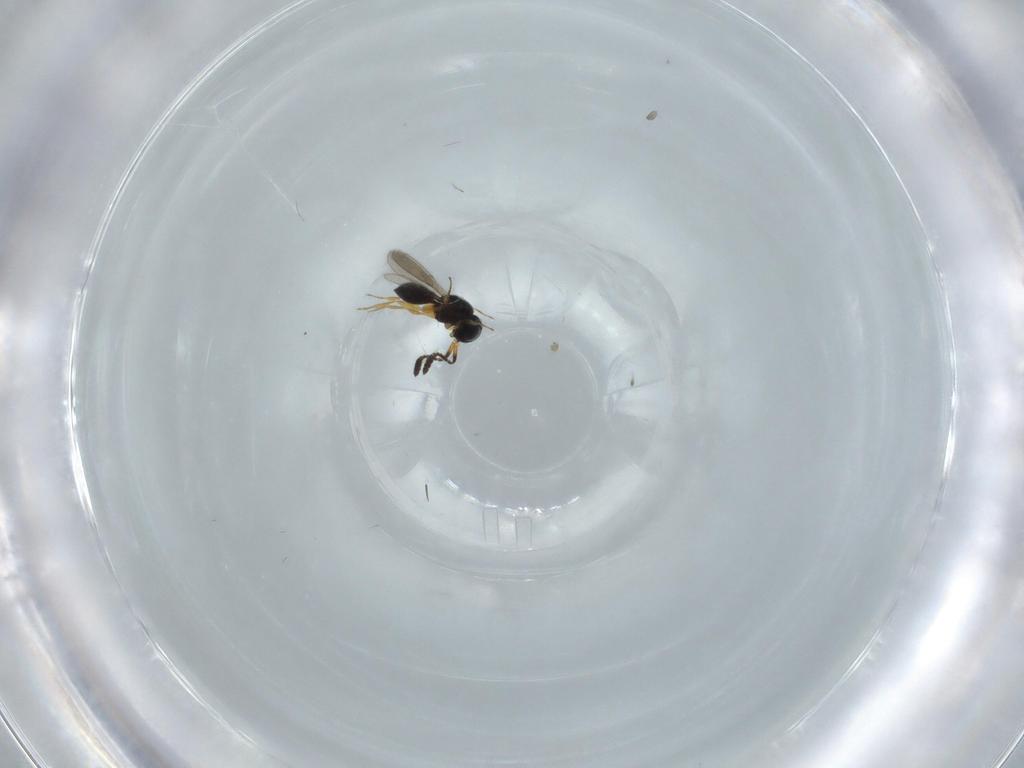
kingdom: Animalia
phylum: Arthropoda
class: Insecta
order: Hymenoptera
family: Scelionidae
